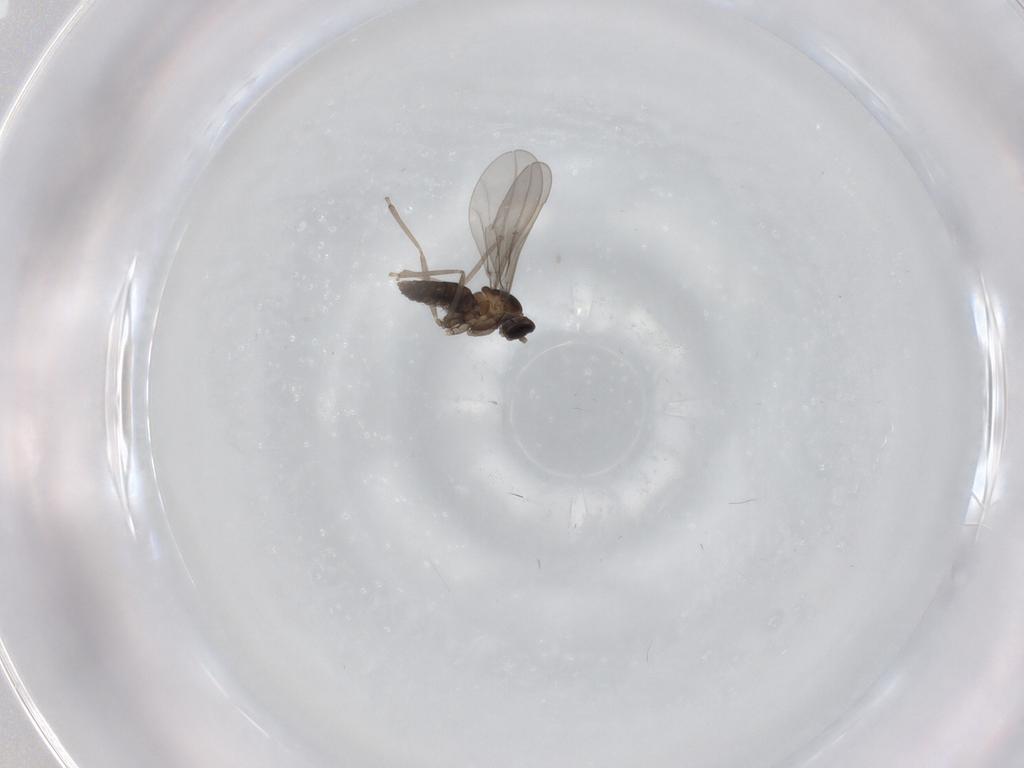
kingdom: Animalia
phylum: Arthropoda
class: Insecta
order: Diptera
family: Cecidomyiidae
